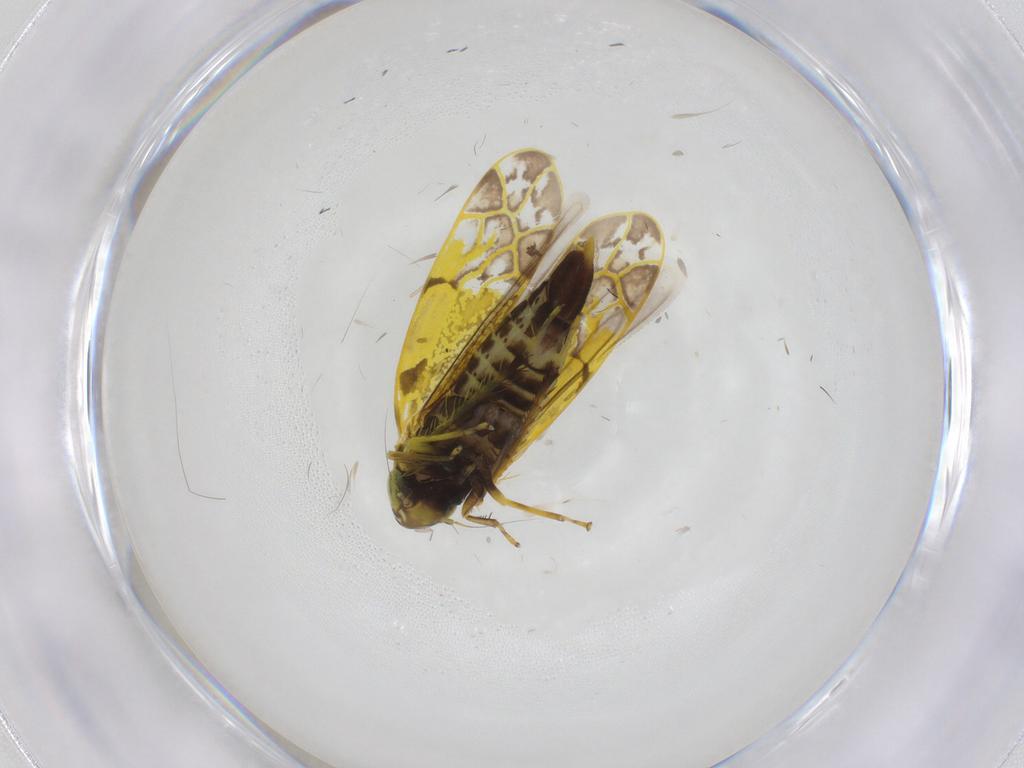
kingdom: Animalia
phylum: Arthropoda
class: Insecta
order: Hemiptera
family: Cicadellidae
